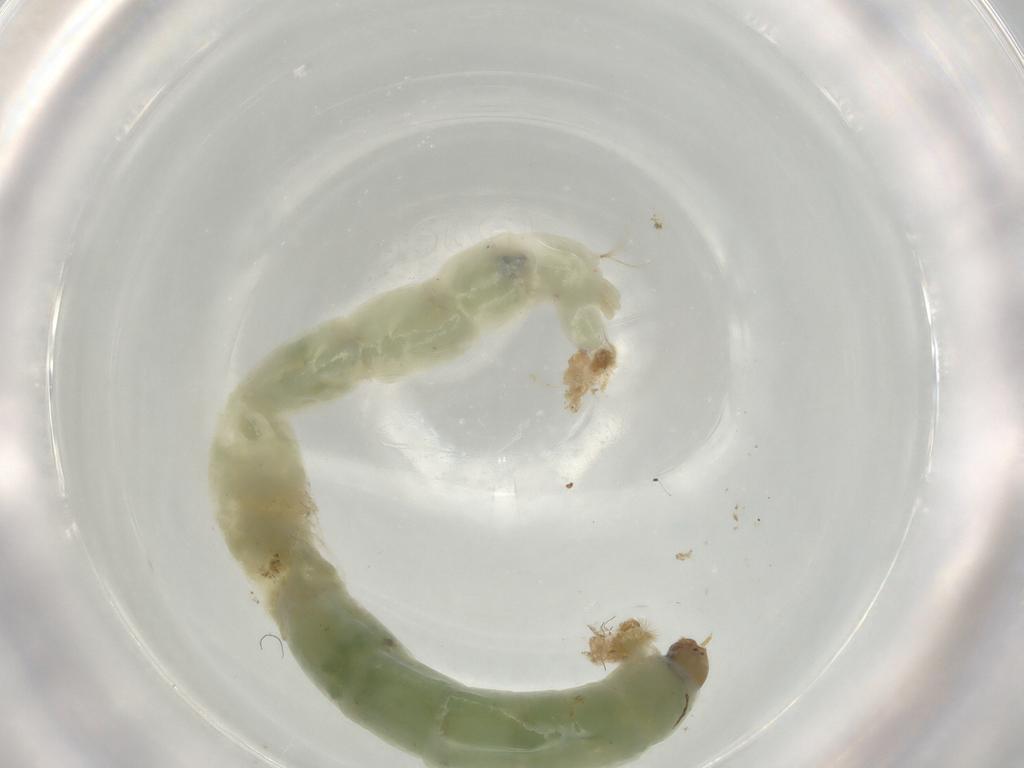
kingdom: Animalia
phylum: Arthropoda
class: Insecta
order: Diptera
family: Chironomidae
